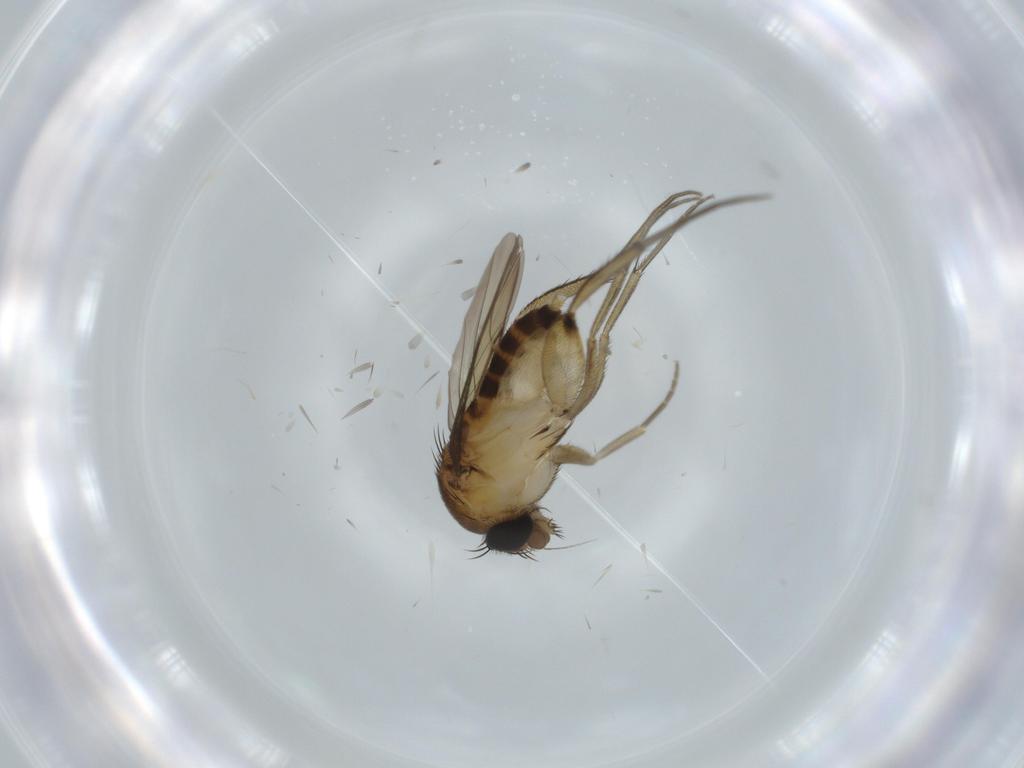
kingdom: Animalia
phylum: Arthropoda
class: Insecta
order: Diptera
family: Phoridae
